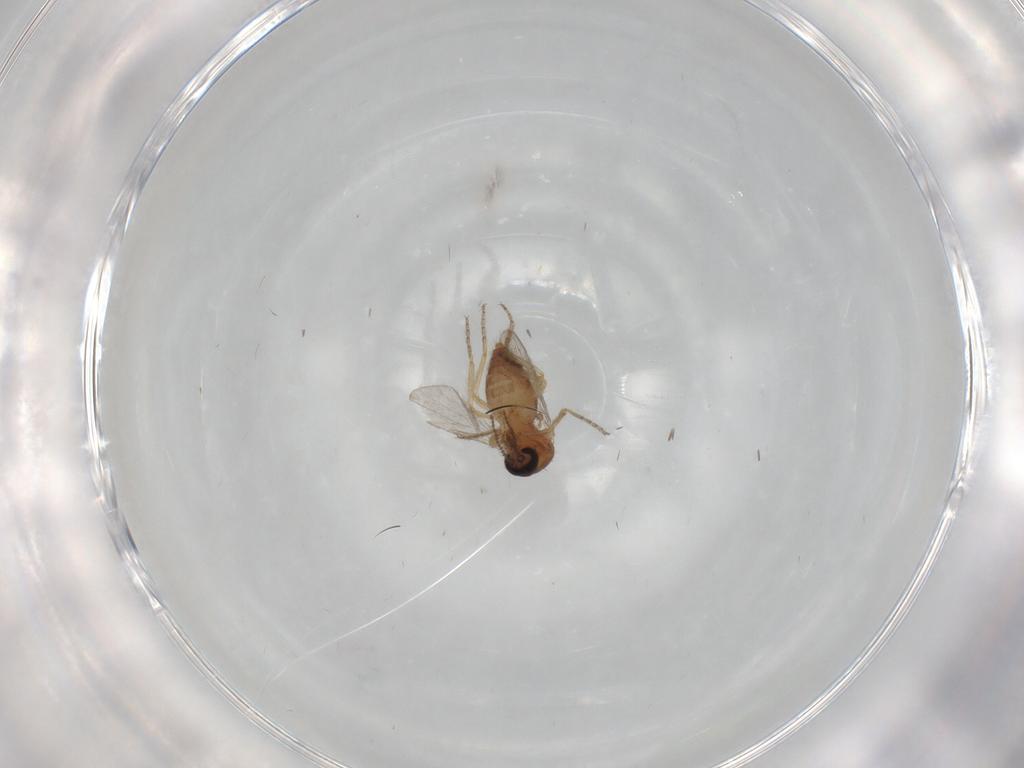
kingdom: Animalia
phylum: Arthropoda
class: Insecta
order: Diptera
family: Ceratopogonidae
